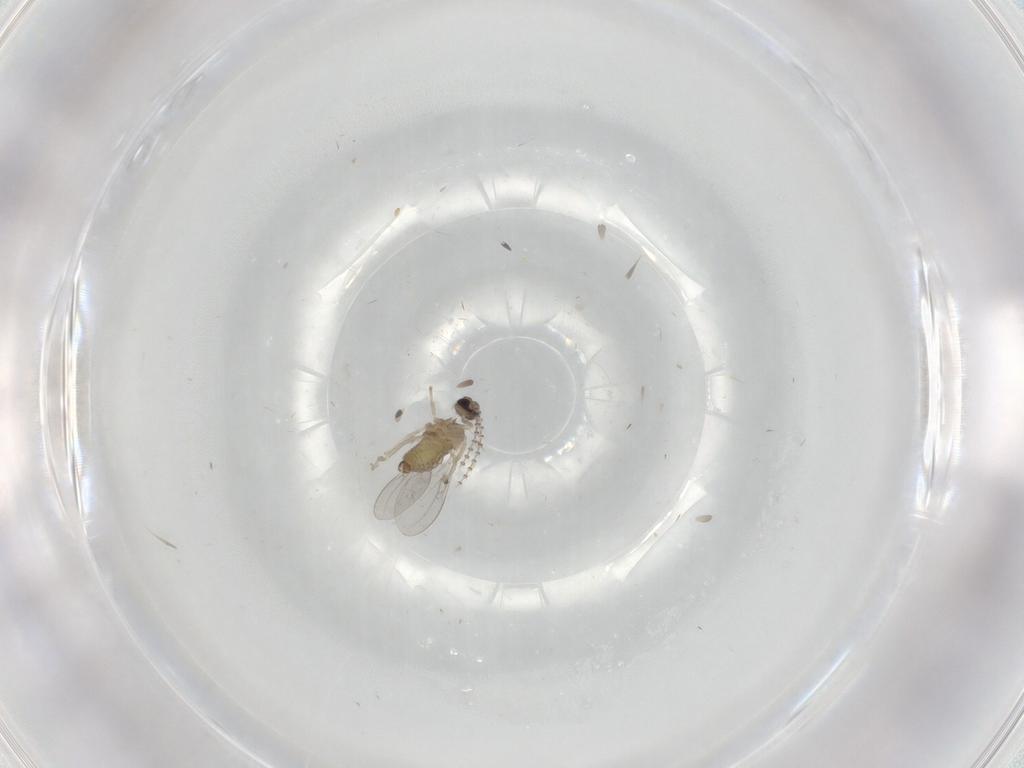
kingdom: Animalia
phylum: Arthropoda
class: Insecta
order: Diptera
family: Cecidomyiidae
